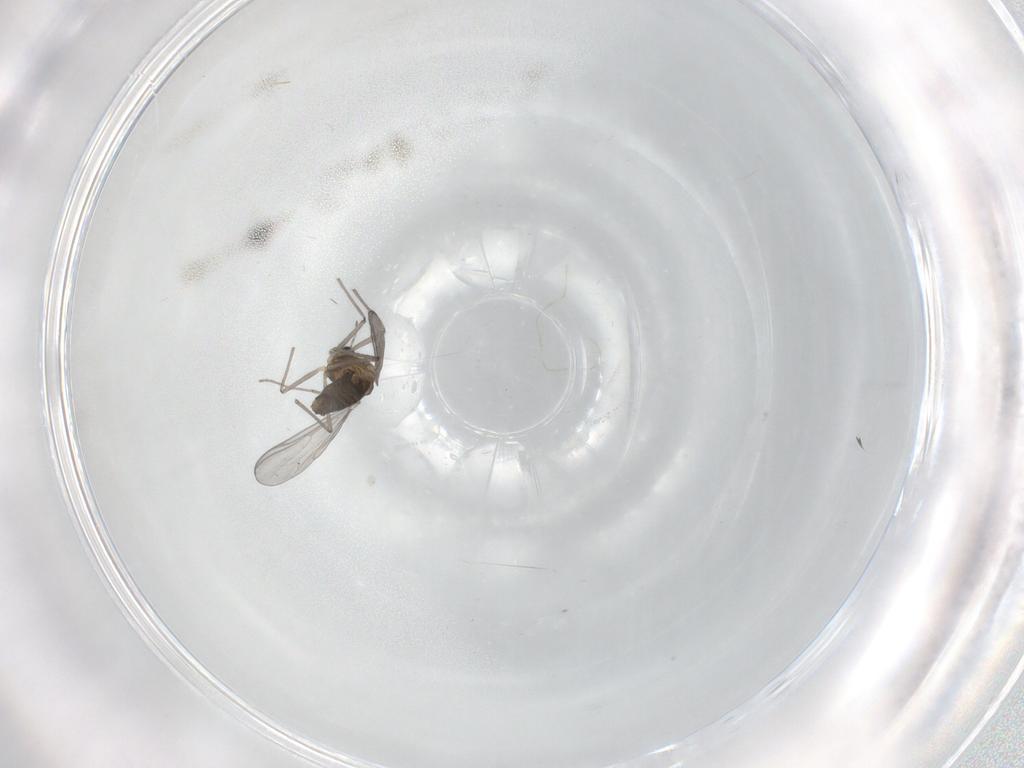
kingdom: Animalia
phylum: Arthropoda
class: Insecta
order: Diptera
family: Chironomidae
